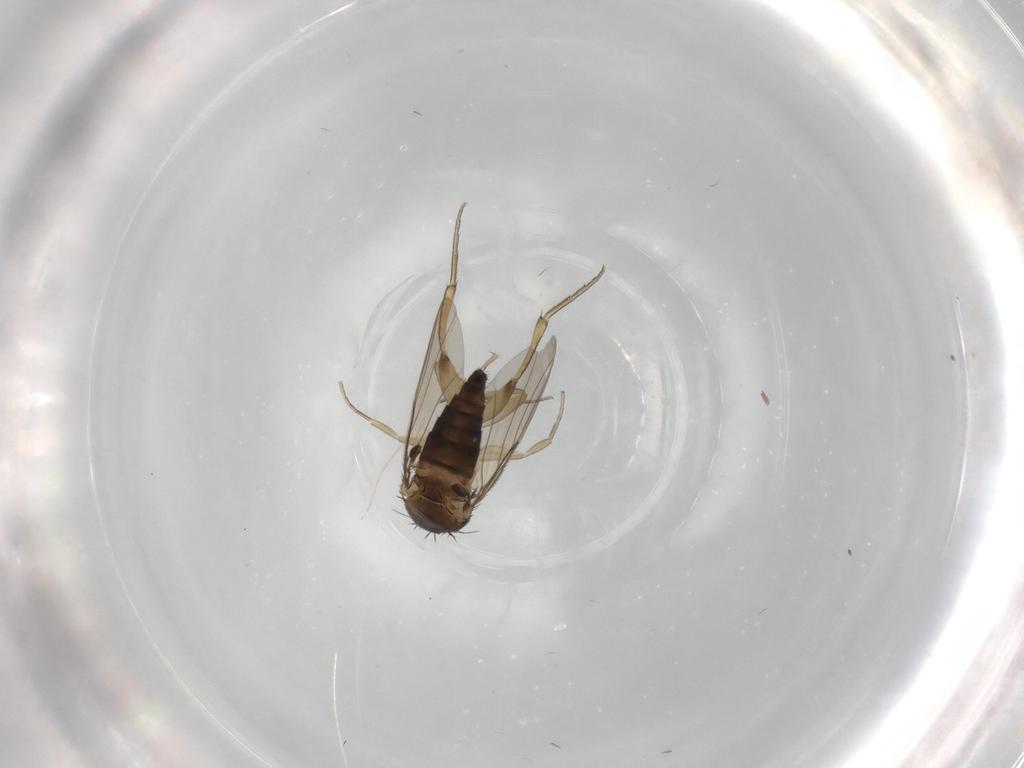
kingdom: Animalia
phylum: Arthropoda
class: Insecta
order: Diptera
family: Phoridae
